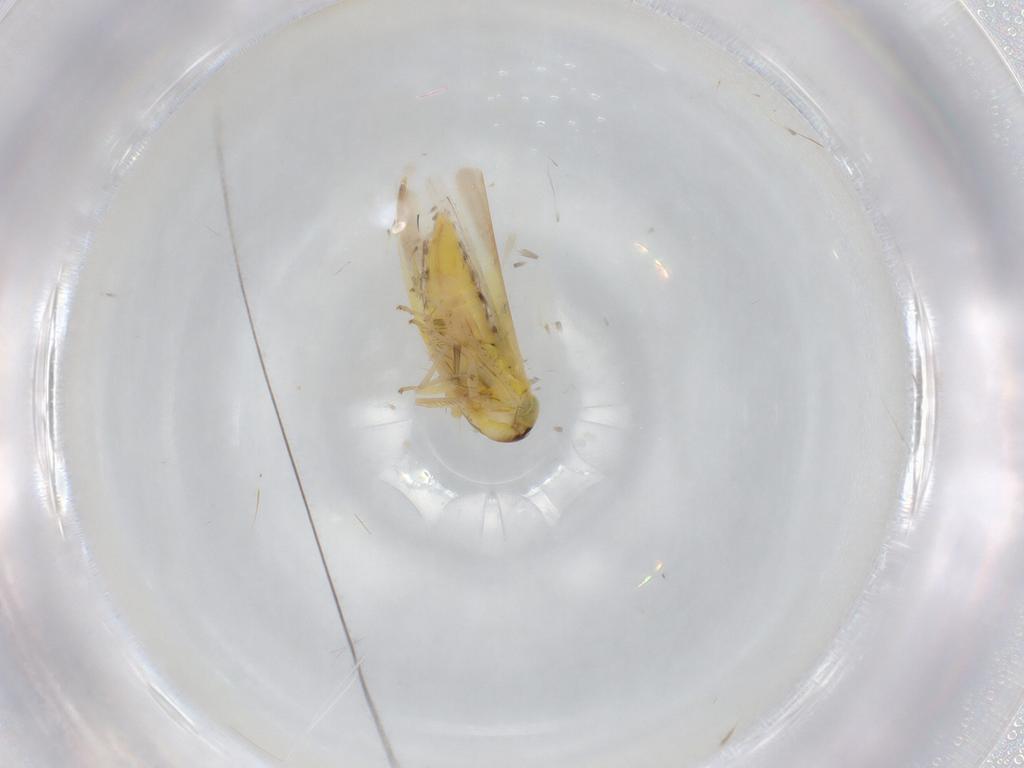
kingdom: Animalia
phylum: Arthropoda
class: Insecta
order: Hemiptera
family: Cicadellidae
